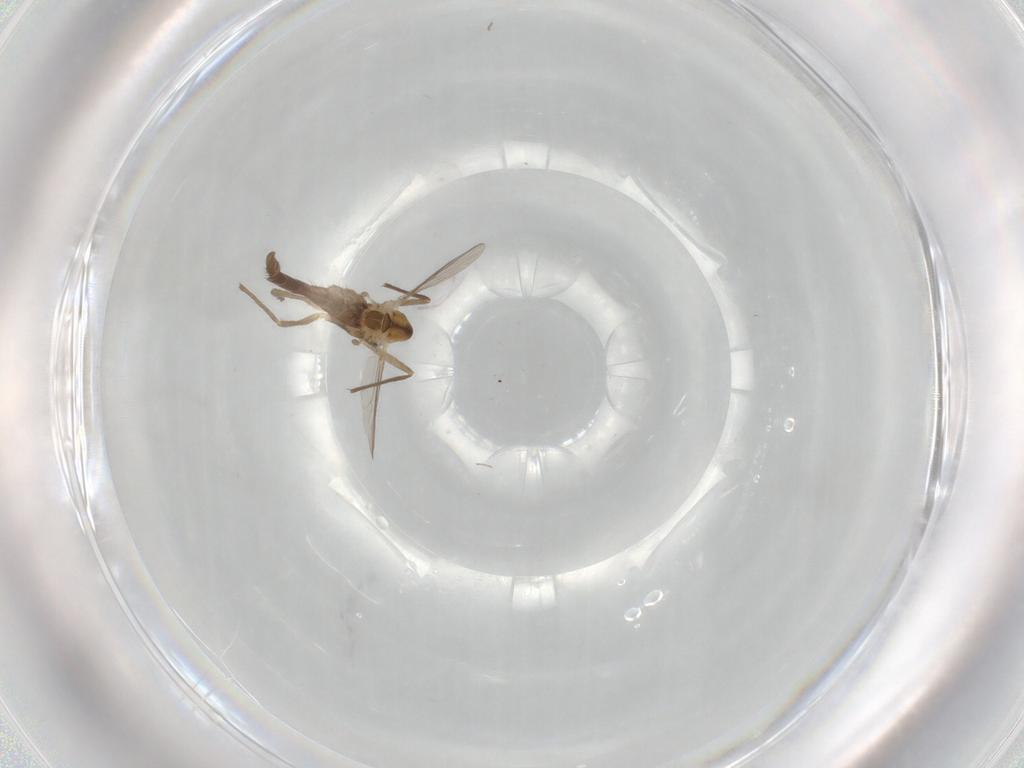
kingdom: Animalia
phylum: Arthropoda
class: Insecta
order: Diptera
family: Chironomidae
